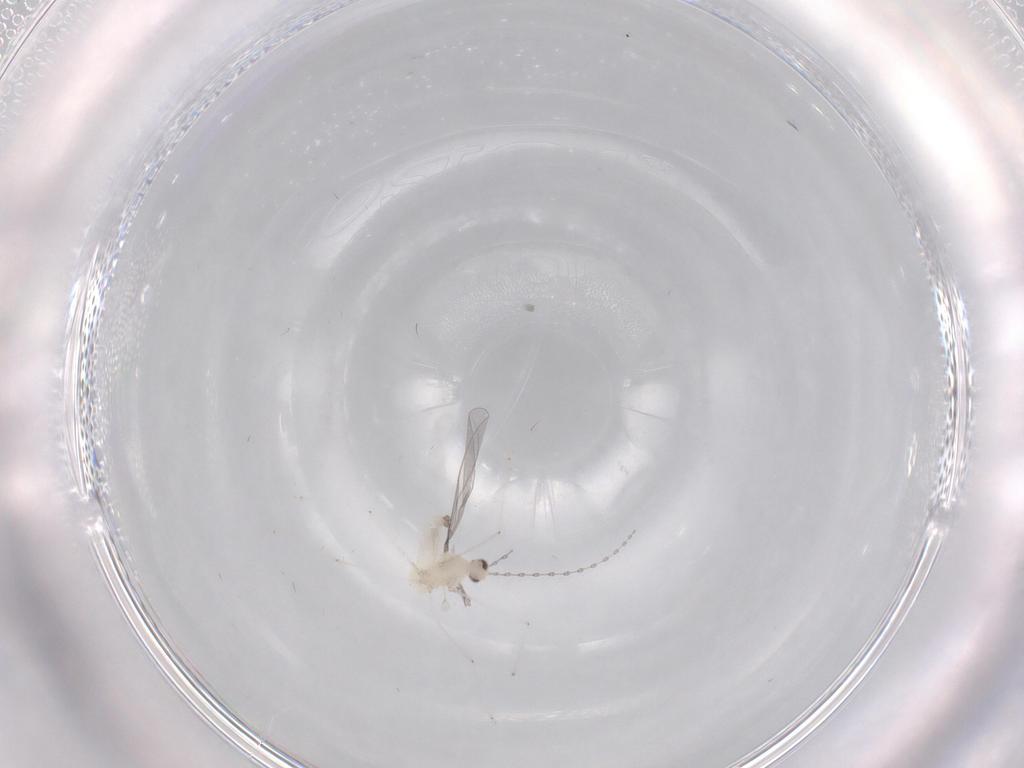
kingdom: Animalia
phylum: Arthropoda
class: Insecta
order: Diptera
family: Cecidomyiidae
